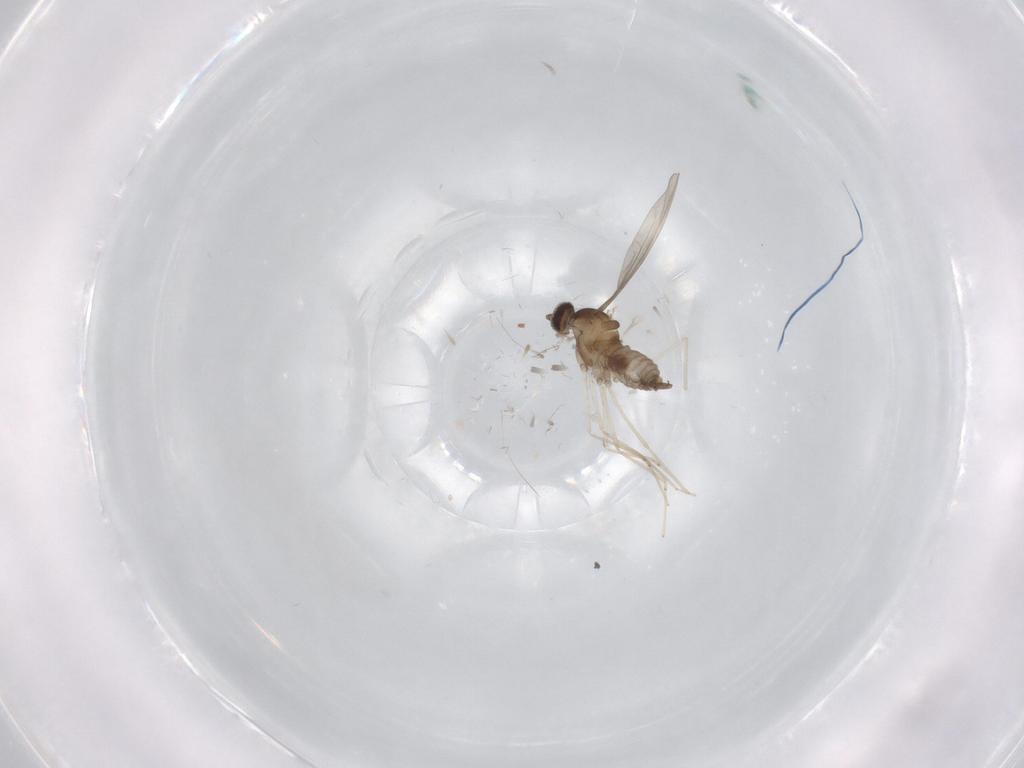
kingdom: Animalia
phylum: Arthropoda
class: Insecta
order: Diptera
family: Cecidomyiidae
